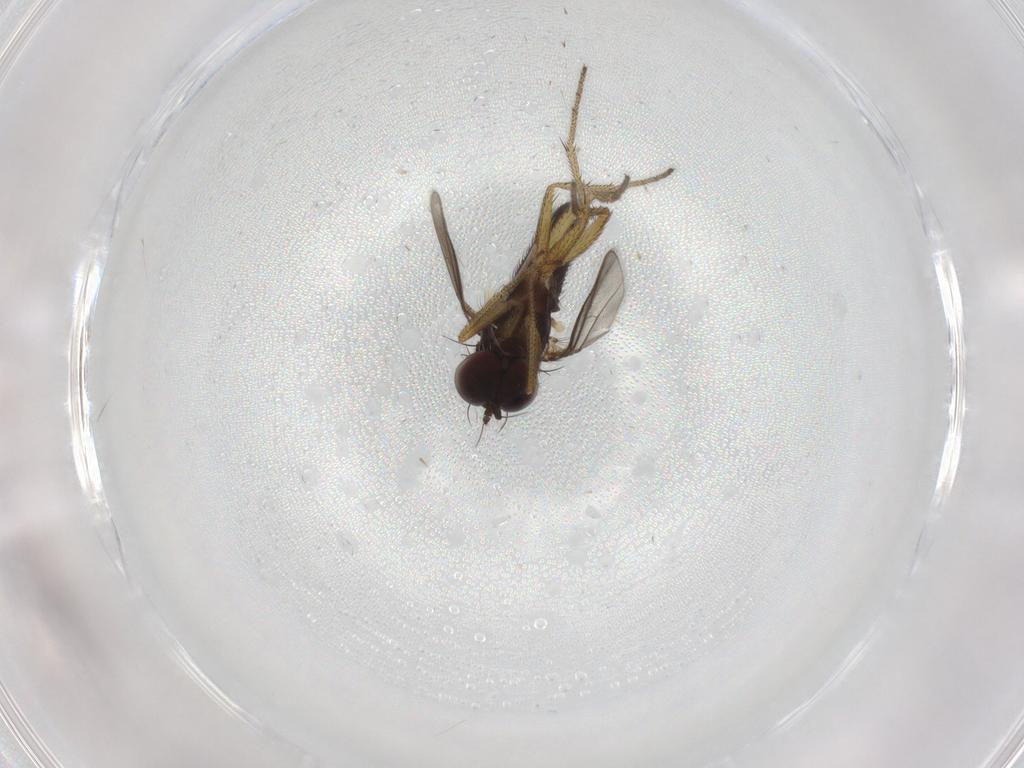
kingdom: Animalia
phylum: Arthropoda
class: Insecta
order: Diptera
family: Dolichopodidae
